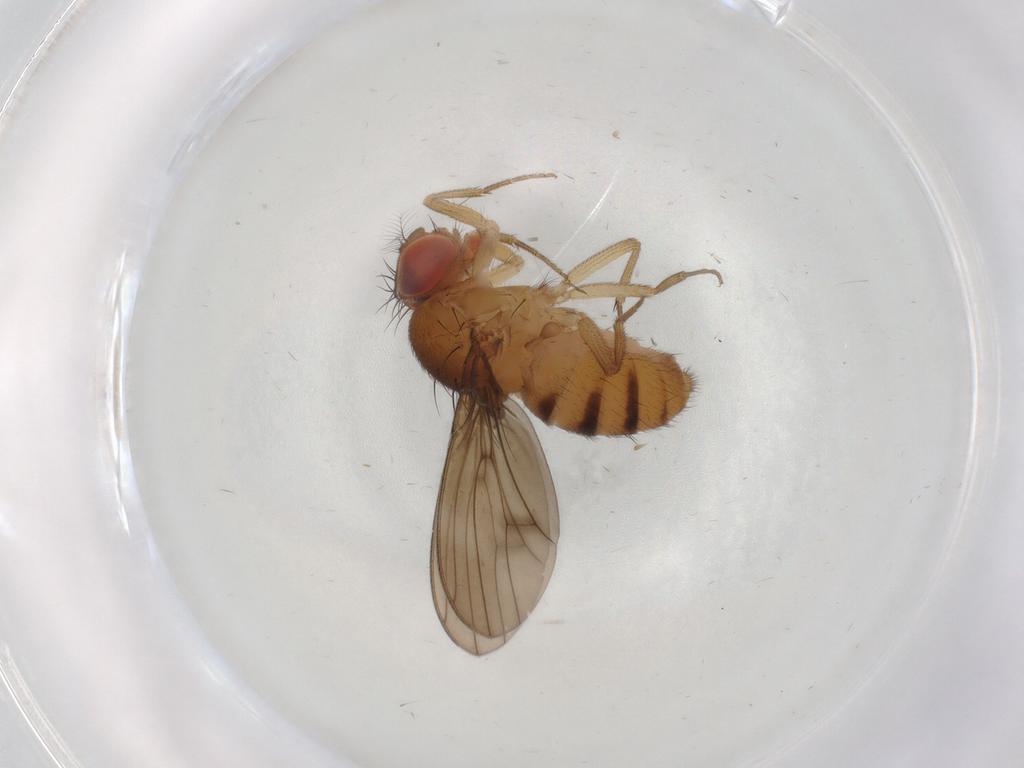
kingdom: Animalia
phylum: Arthropoda
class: Insecta
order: Diptera
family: Drosophilidae
